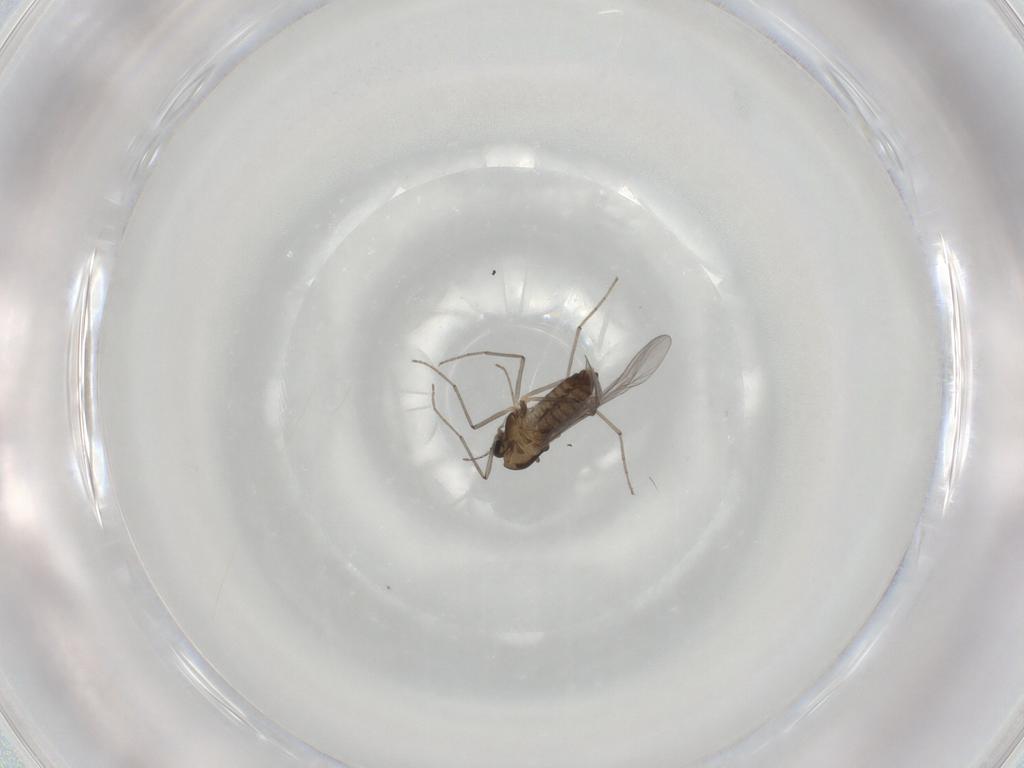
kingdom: Animalia
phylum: Arthropoda
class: Insecta
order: Diptera
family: Chironomidae
